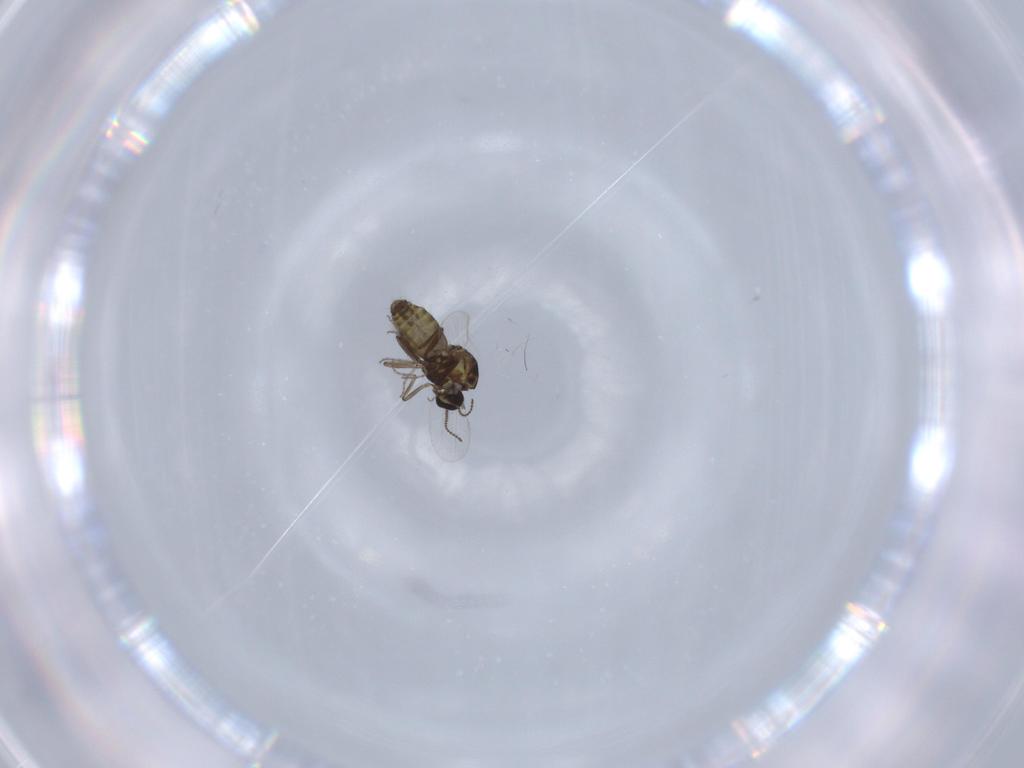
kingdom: Animalia
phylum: Arthropoda
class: Insecta
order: Diptera
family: Ceratopogonidae
